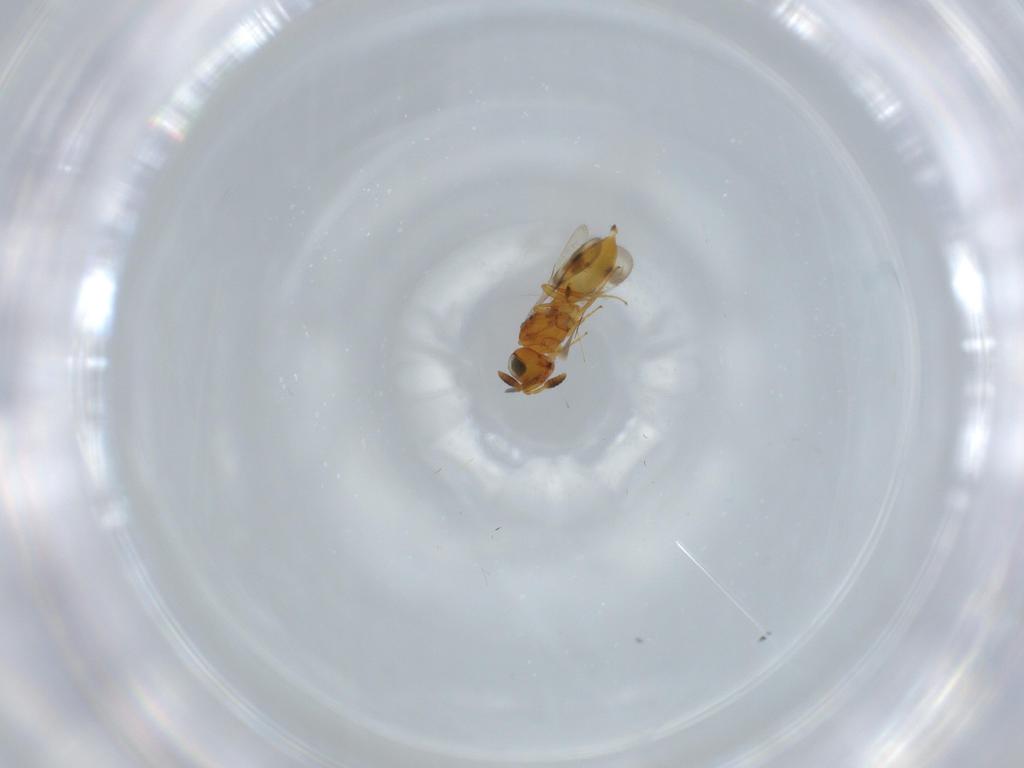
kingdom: Animalia
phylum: Arthropoda
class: Insecta
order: Hymenoptera
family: Scelionidae
